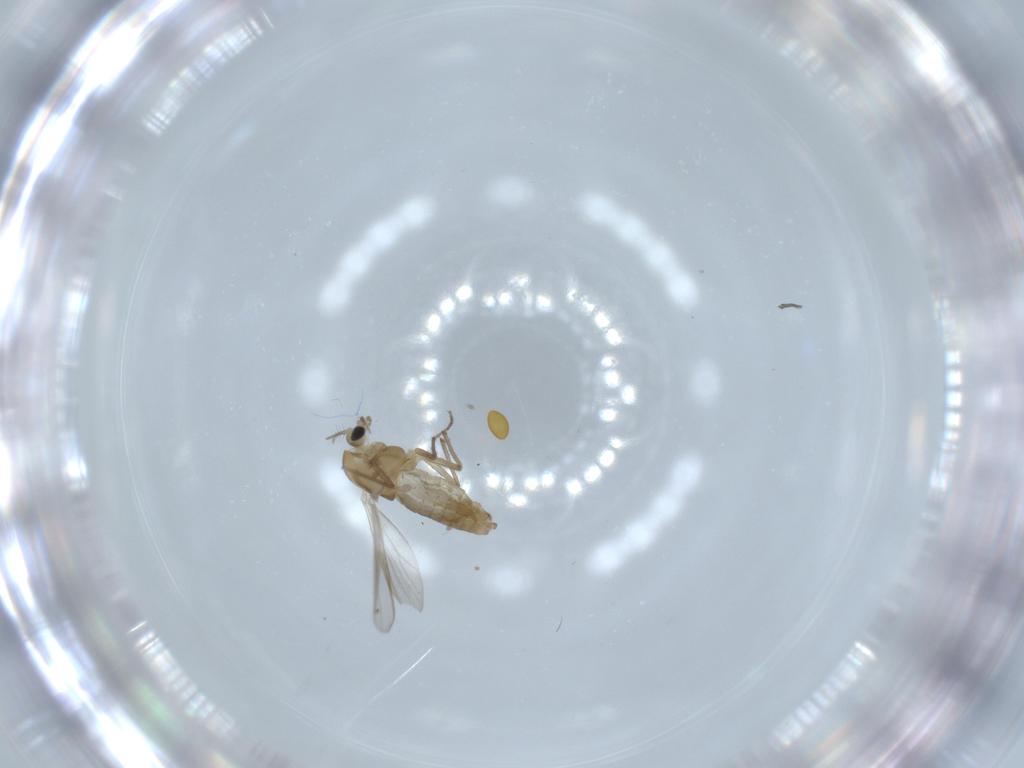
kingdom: Animalia
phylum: Arthropoda
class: Insecta
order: Diptera
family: Chironomidae
